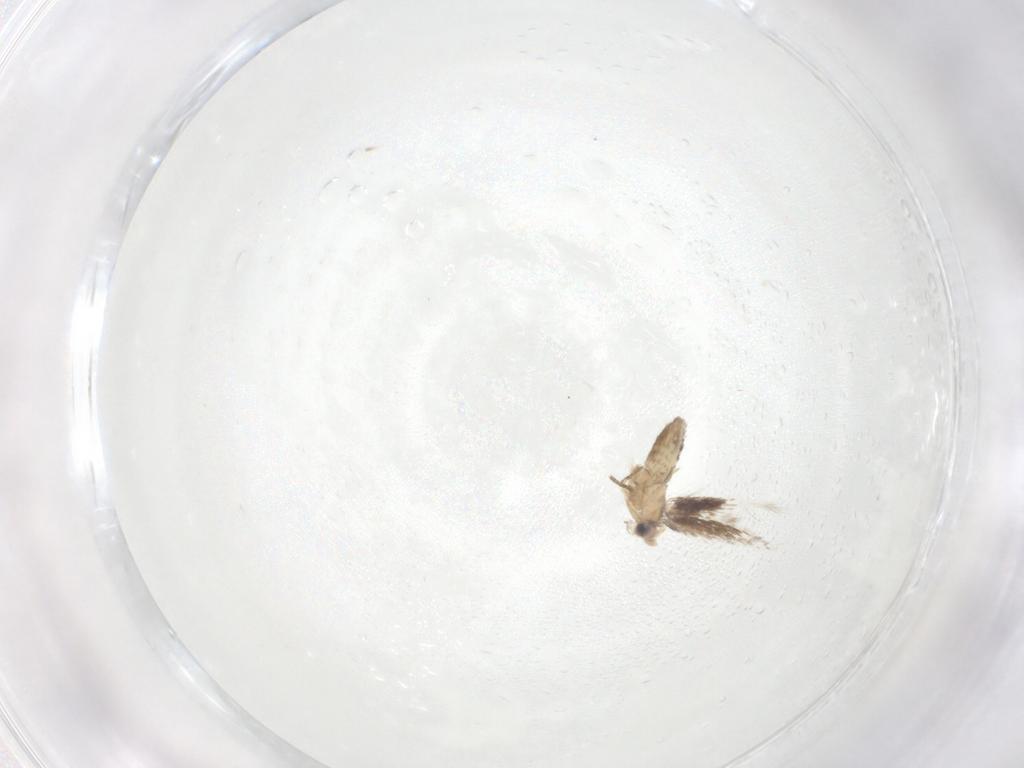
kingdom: Animalia
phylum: Arthropoda
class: Insecta
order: Lepidoptera
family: Nepticulidae
